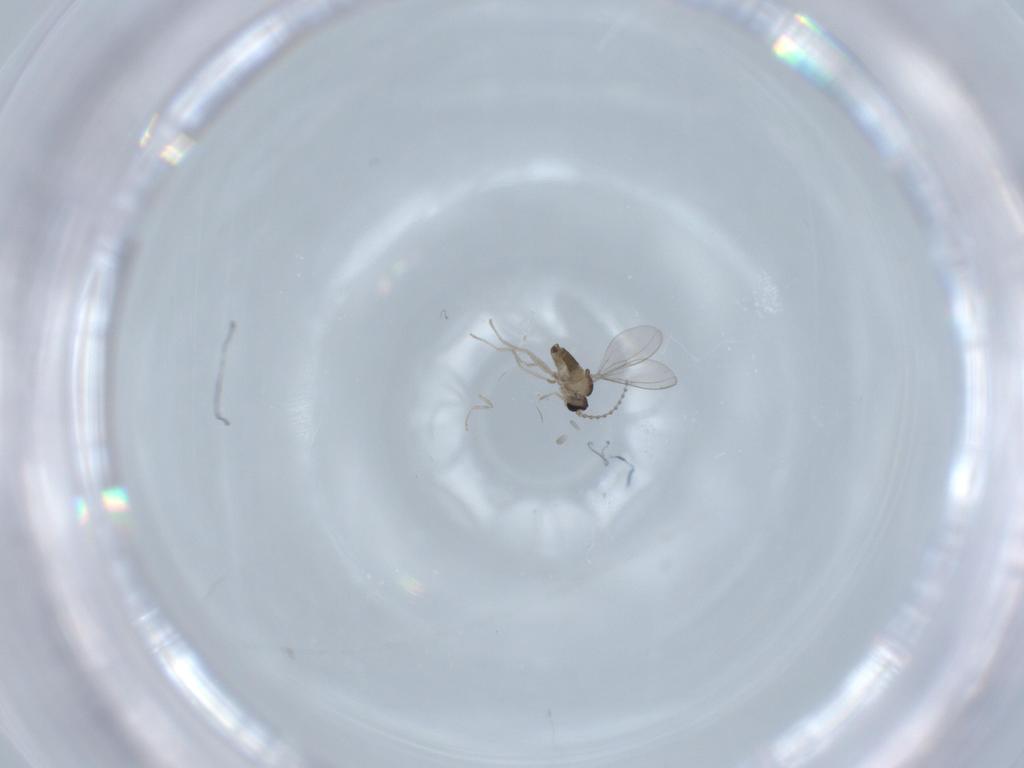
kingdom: Animalia
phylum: Arthropoda
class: Insecta
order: Diptera
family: Cecidomyiidae
